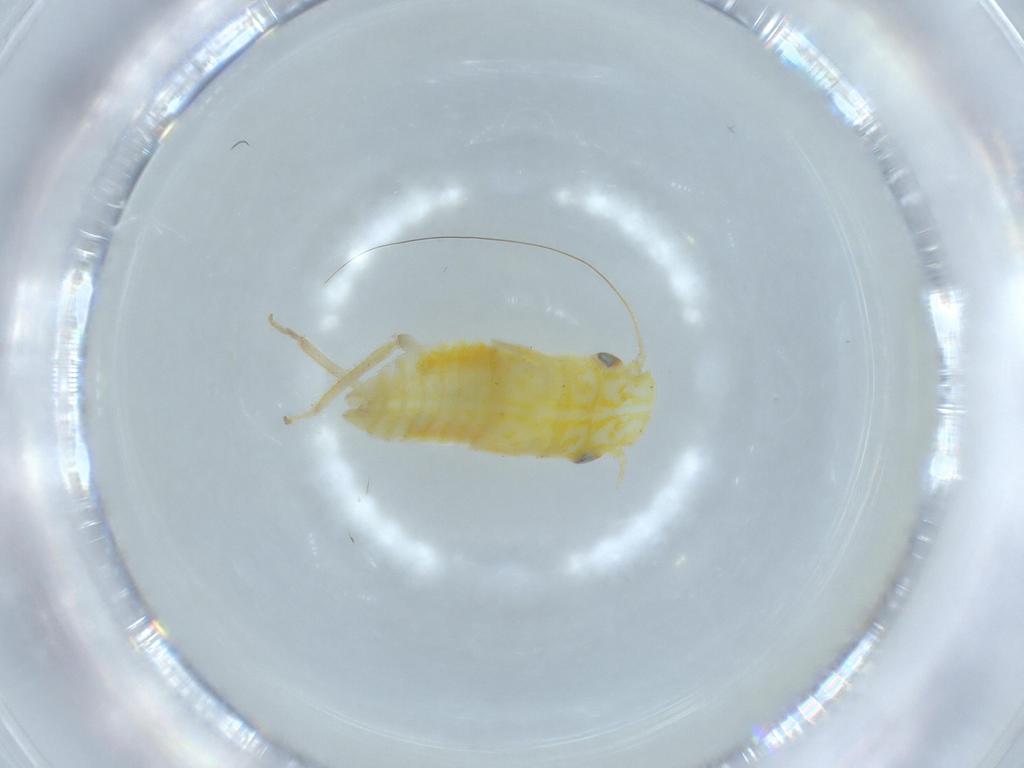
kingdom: Animalia
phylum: Arthropoda
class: Insecta
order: Hemiptera
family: Cicadellidae
